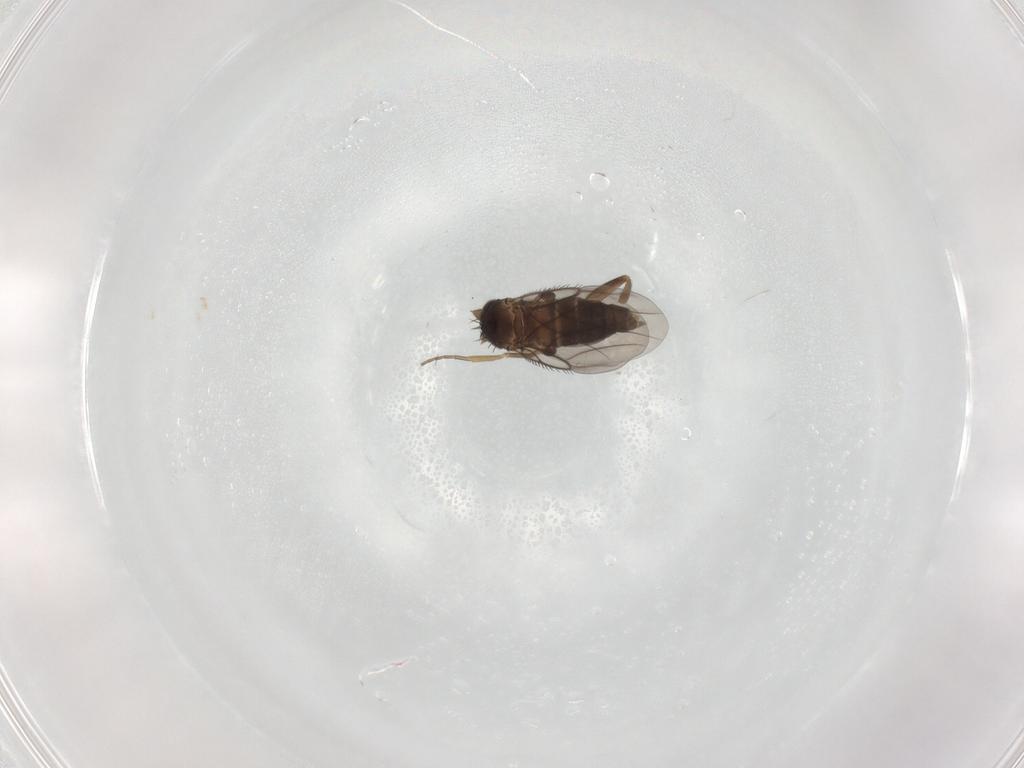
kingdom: Animalia
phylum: Arthropoda
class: Insecta
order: Diptera
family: Phoridae
